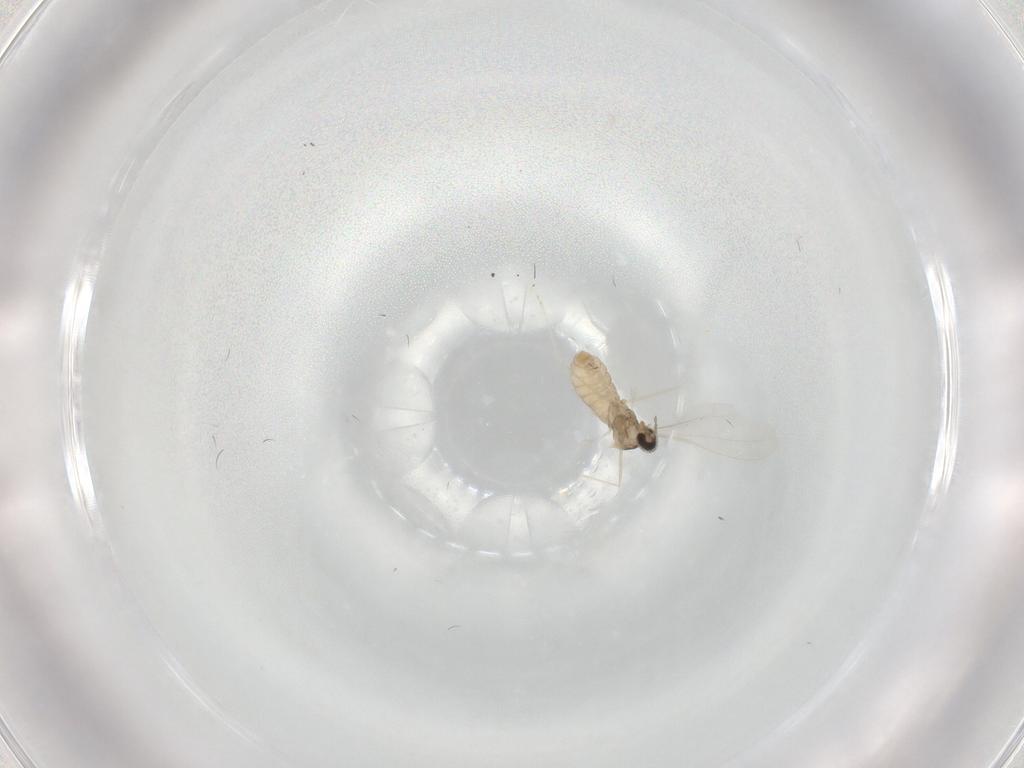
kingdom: Animalia
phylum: Arthropoda
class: Insecta
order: Diptera
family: Cecidomyiidae
